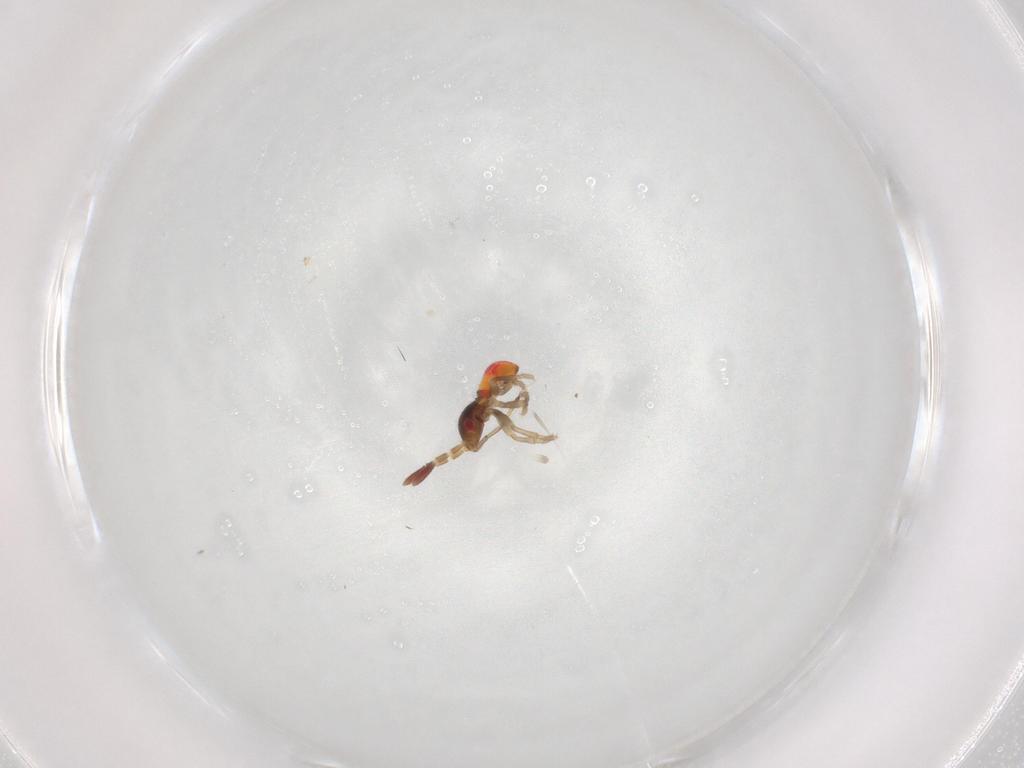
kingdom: Animalia
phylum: Arthropoda
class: Insecta
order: Hemiptera
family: Rhyparochromidae
